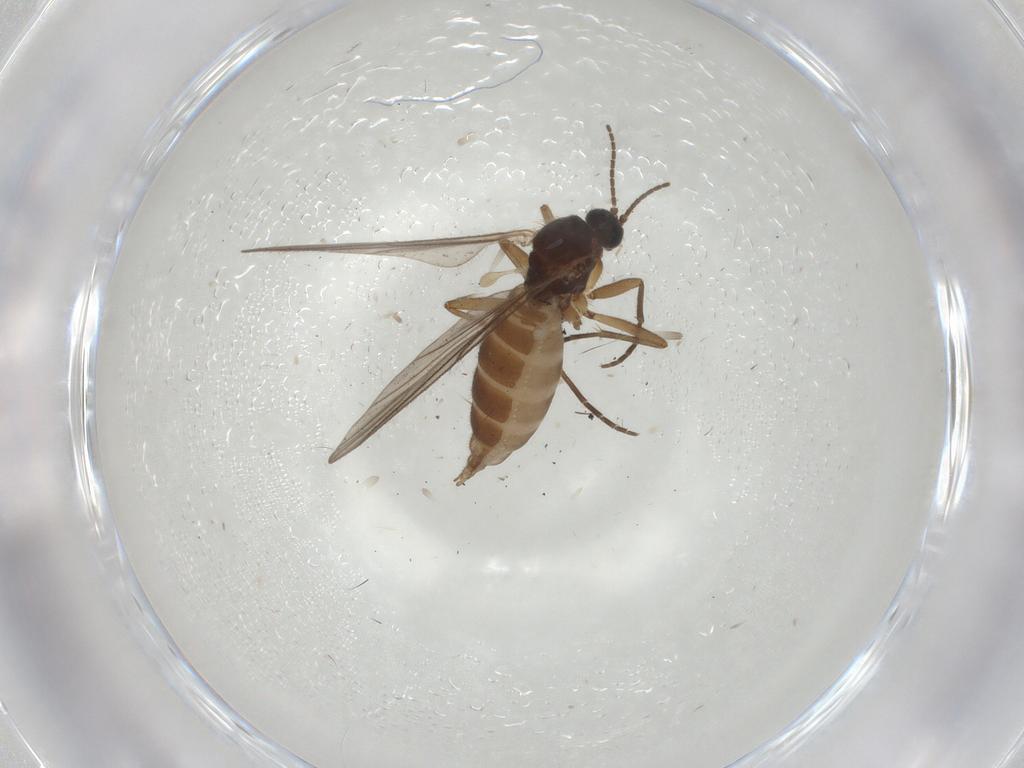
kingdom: Animalia
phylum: Arthropoda
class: Insecta
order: Diptera
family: Sciaridae
